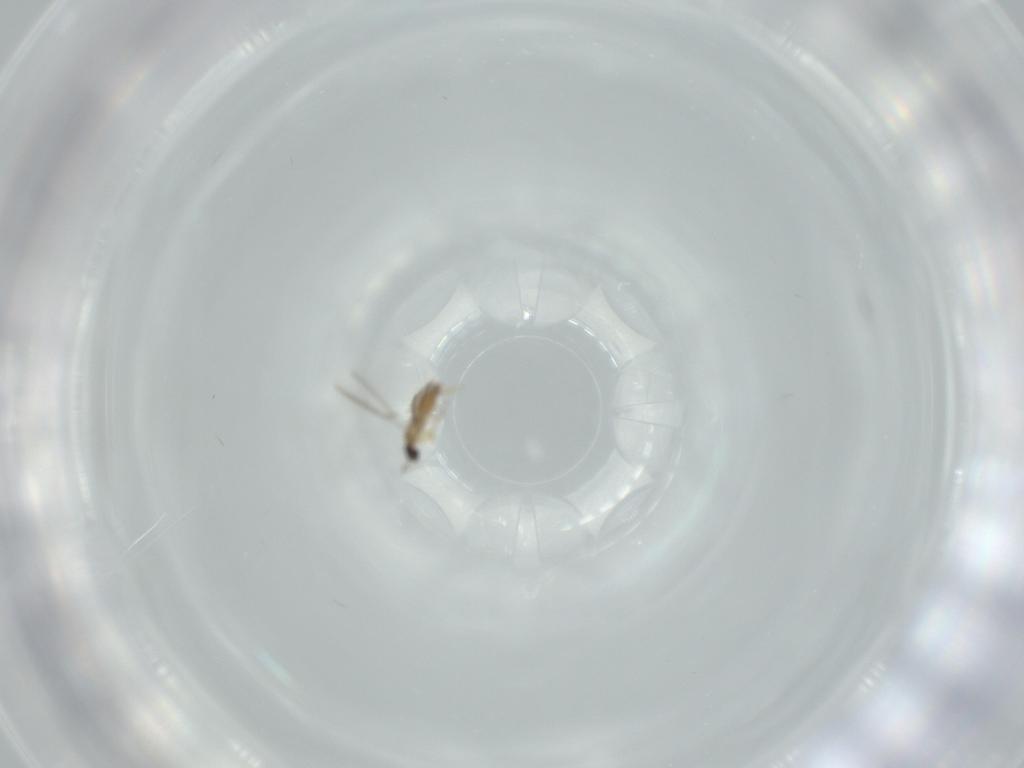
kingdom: Animalia
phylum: Arthropoda
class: Insecta
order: Hymenoptera
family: Mymaridae
